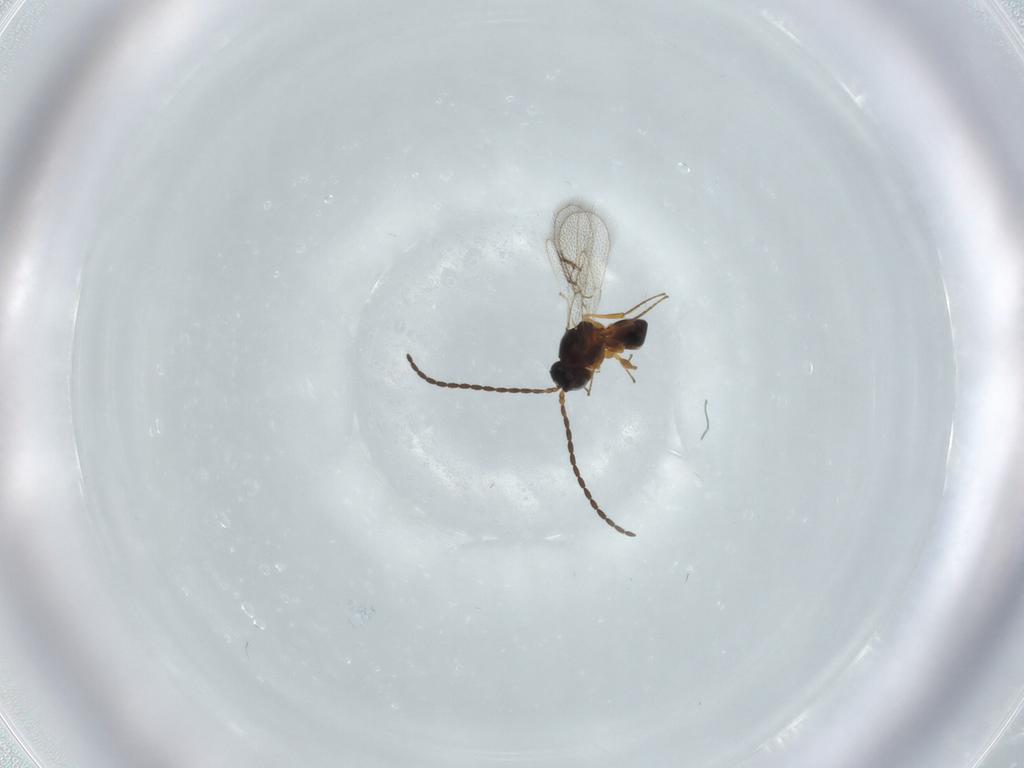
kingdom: Animalia
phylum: Arthropoda
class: Insecta
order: Hymenoptera
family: Figitidae
